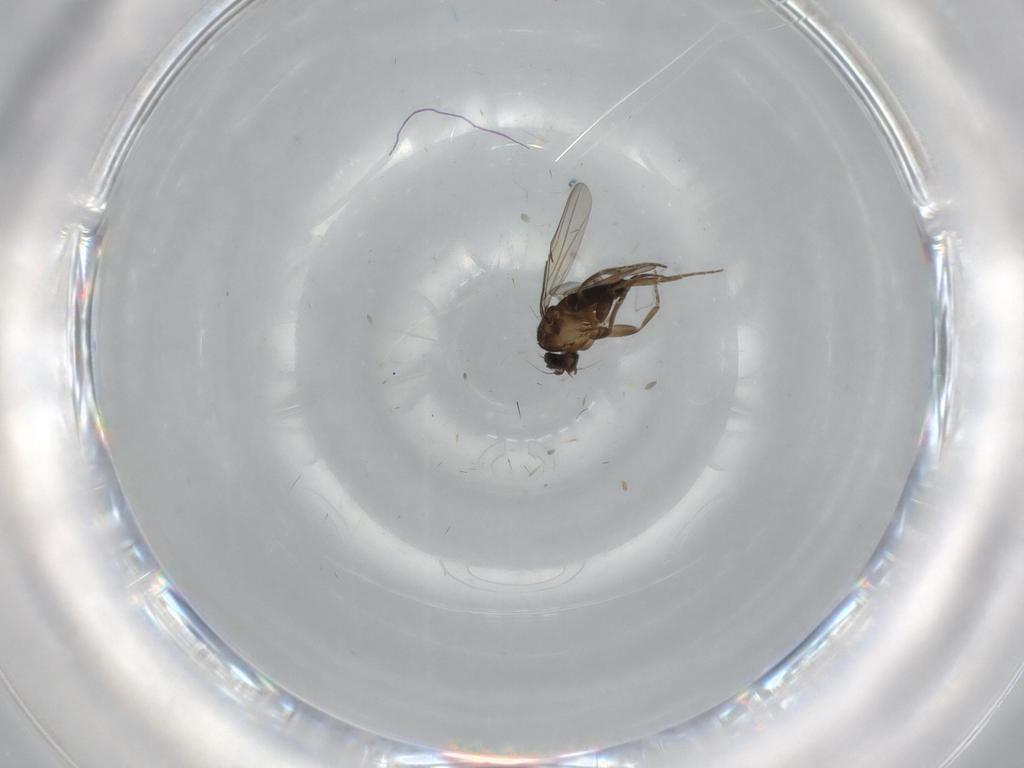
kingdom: Animalia
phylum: Arthropoda
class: Insecta
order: Diptera
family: Phoridae
